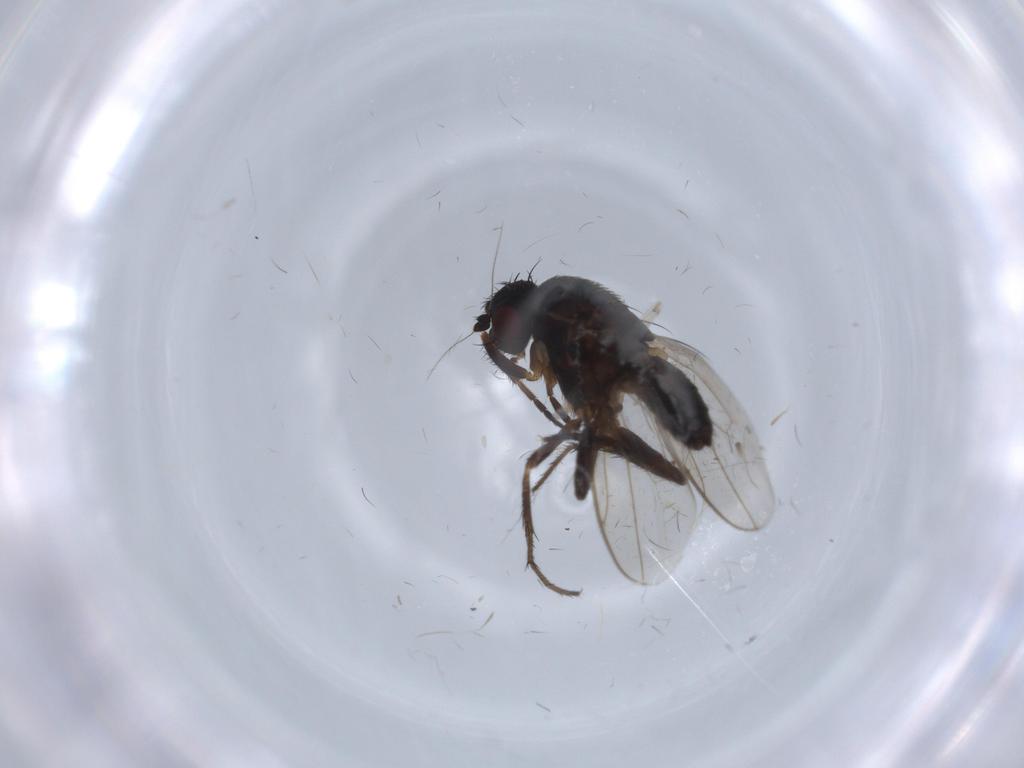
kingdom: Animalia
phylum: Arthropoda
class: Insecta
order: Diptera
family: Sphaeroceridae
